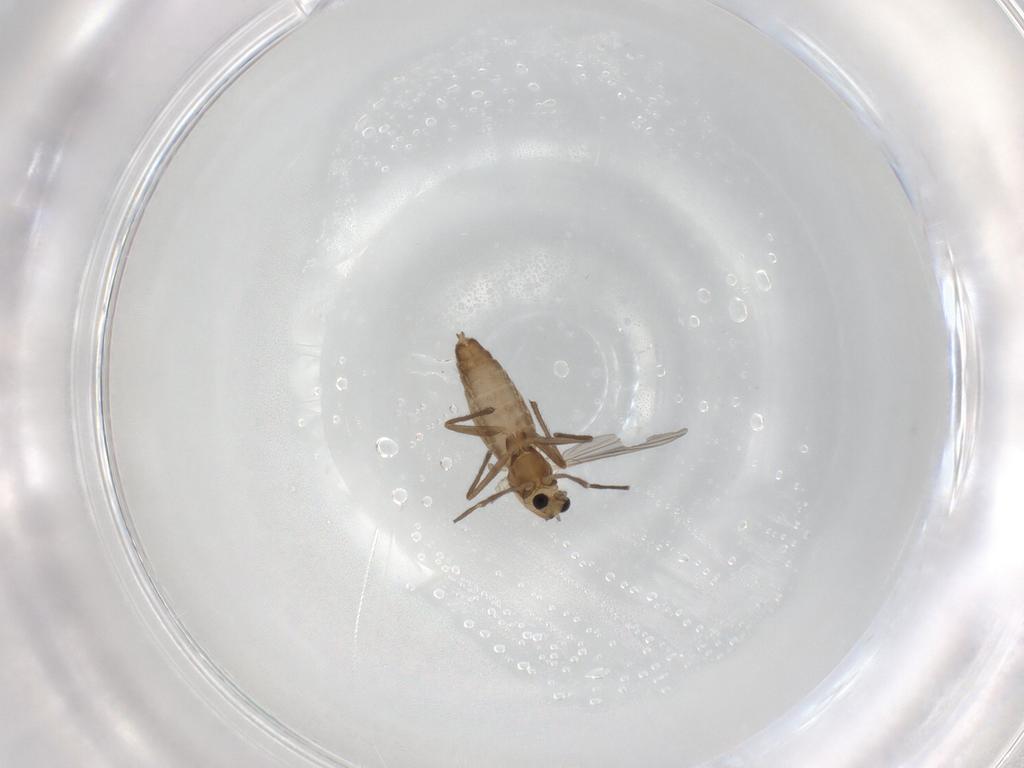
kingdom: Animalia
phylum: Arthropoda
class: Insecta
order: Diptera
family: Chironomidae
